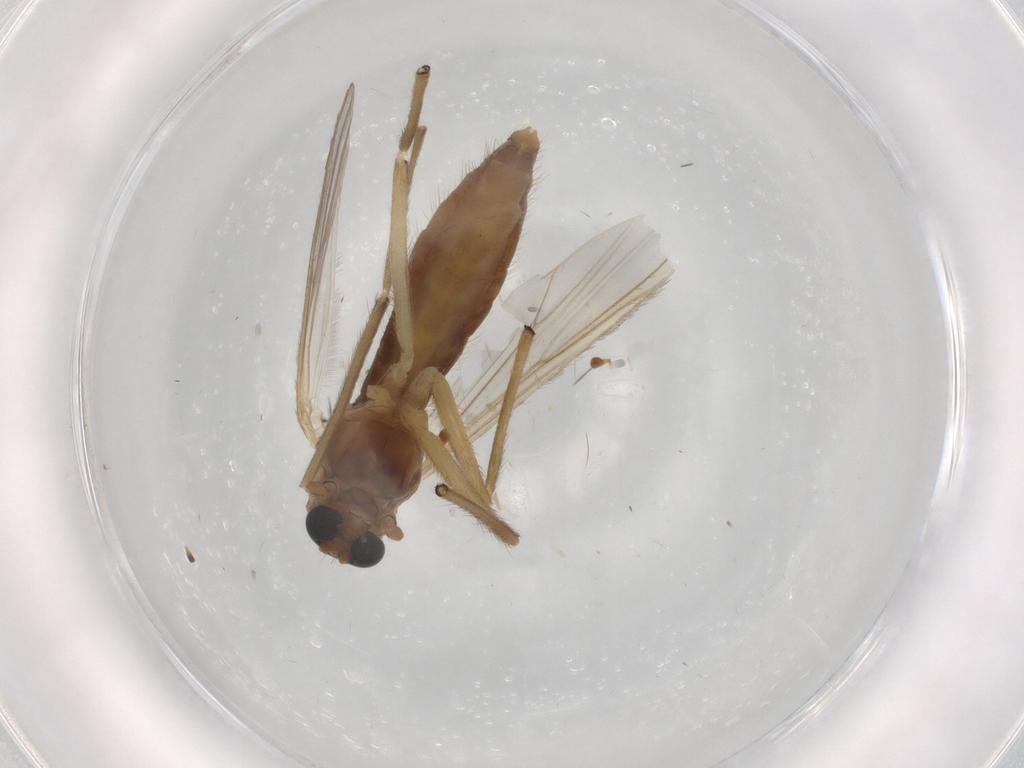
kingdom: Animalia
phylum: Arthropoda
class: Insecta
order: Diptera
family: Chironomidae
